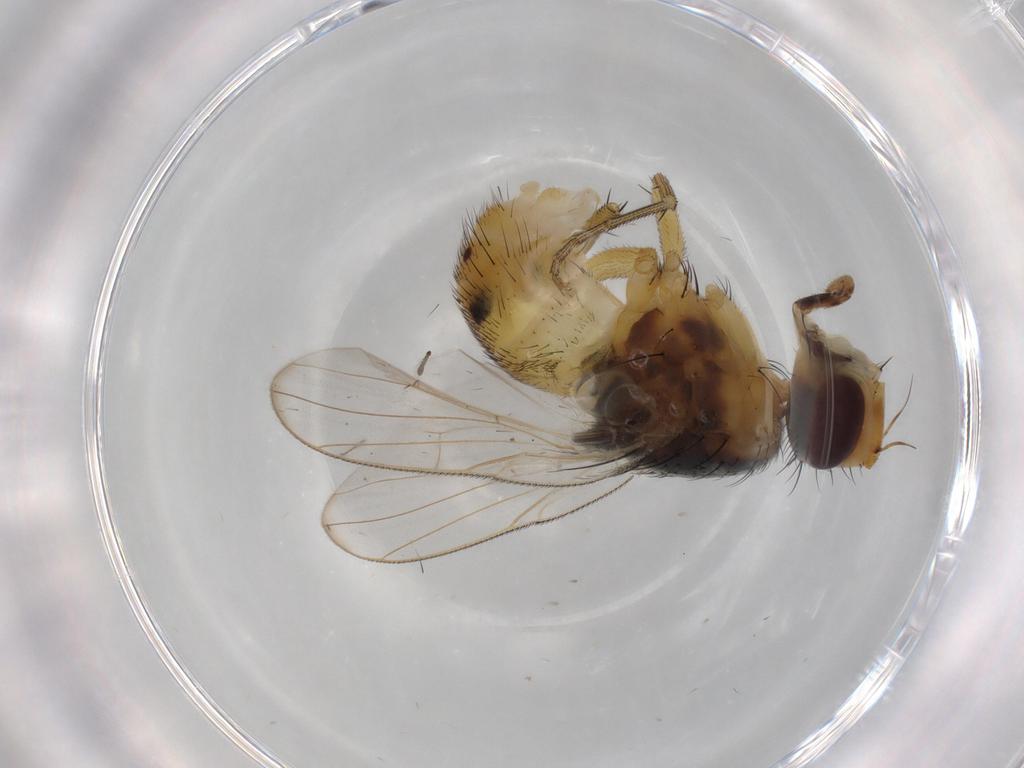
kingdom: Animalia
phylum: Arthropoda
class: Insecta
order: Diptera
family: Muscidae
